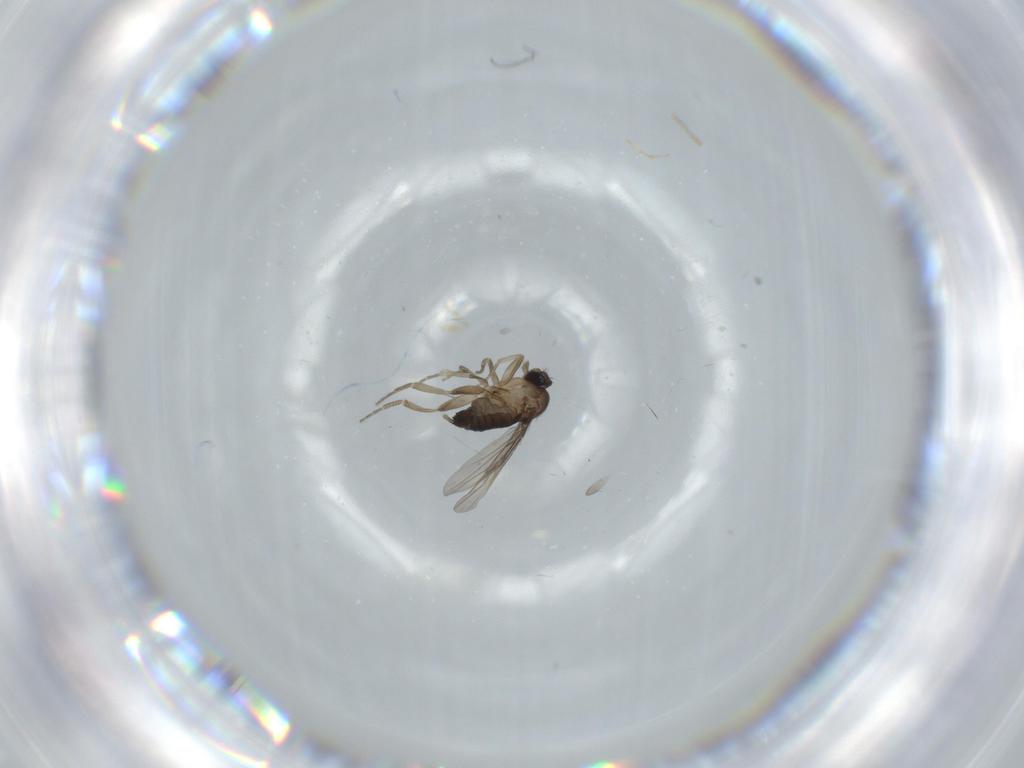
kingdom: Animalia
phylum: Arthropoda
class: Insecta
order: Diptera
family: Phoridae
